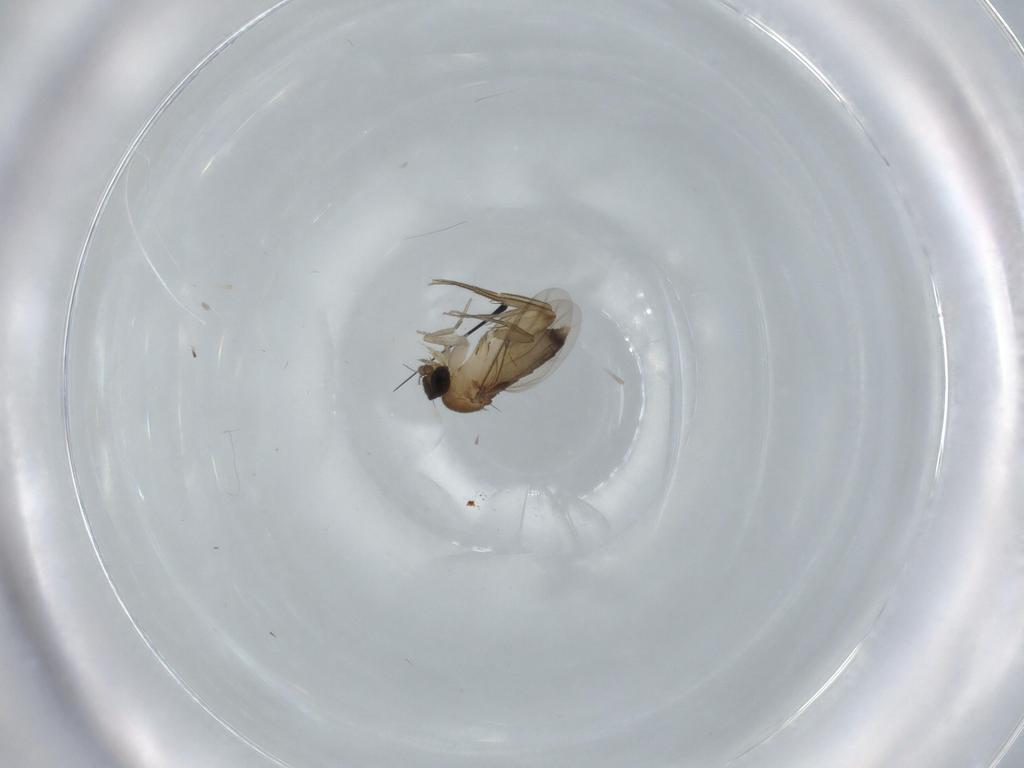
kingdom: Animalia
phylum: Arthropoda
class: Insecta
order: Diptera
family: Phoridae
